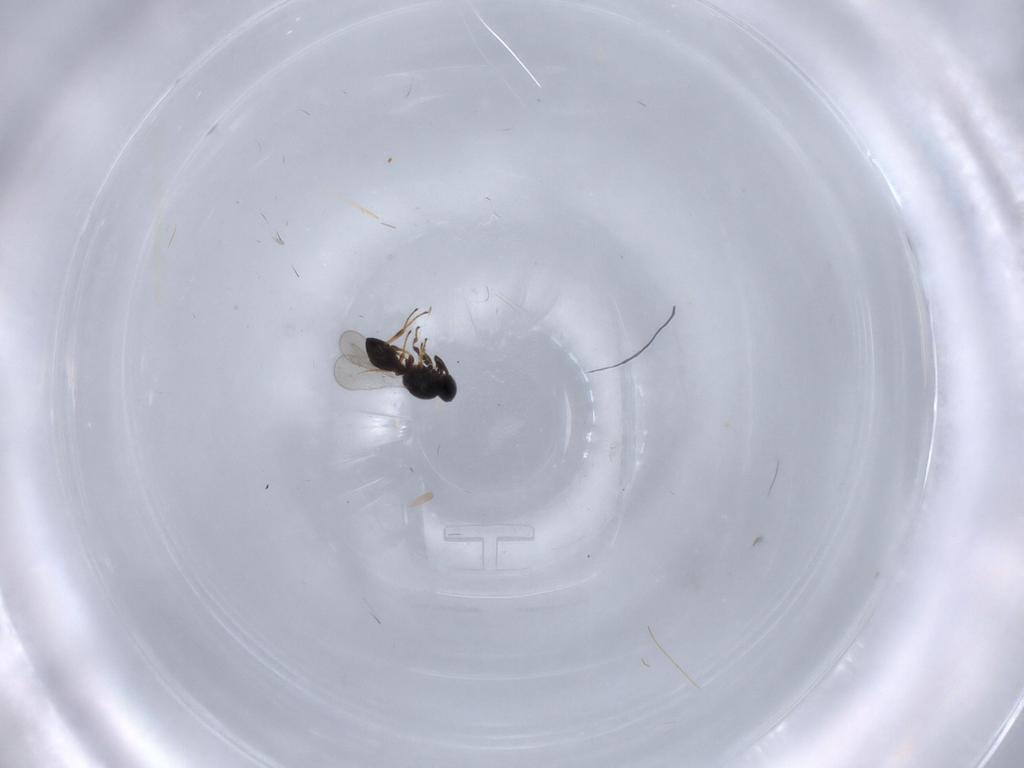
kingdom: Animalia
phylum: Arthropoda
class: Insecta
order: Hymenoptera
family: Platygastridae
